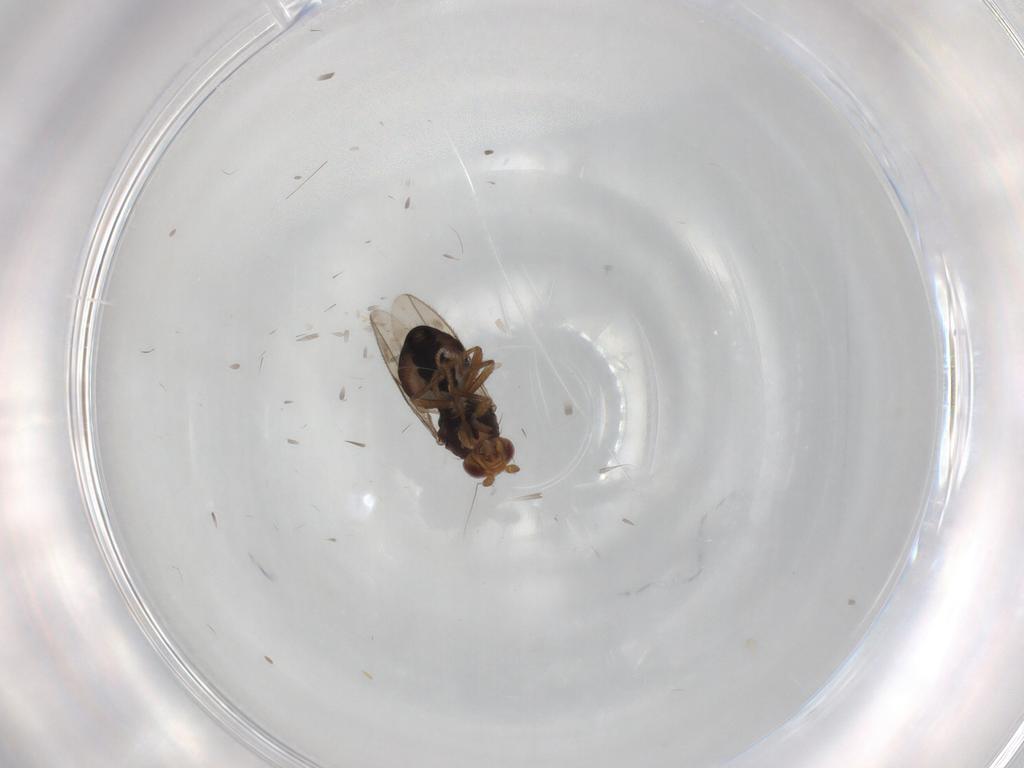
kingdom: Animalia
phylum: Arthropoda
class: Insecta
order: Diptera
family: Sphaeroceridae
